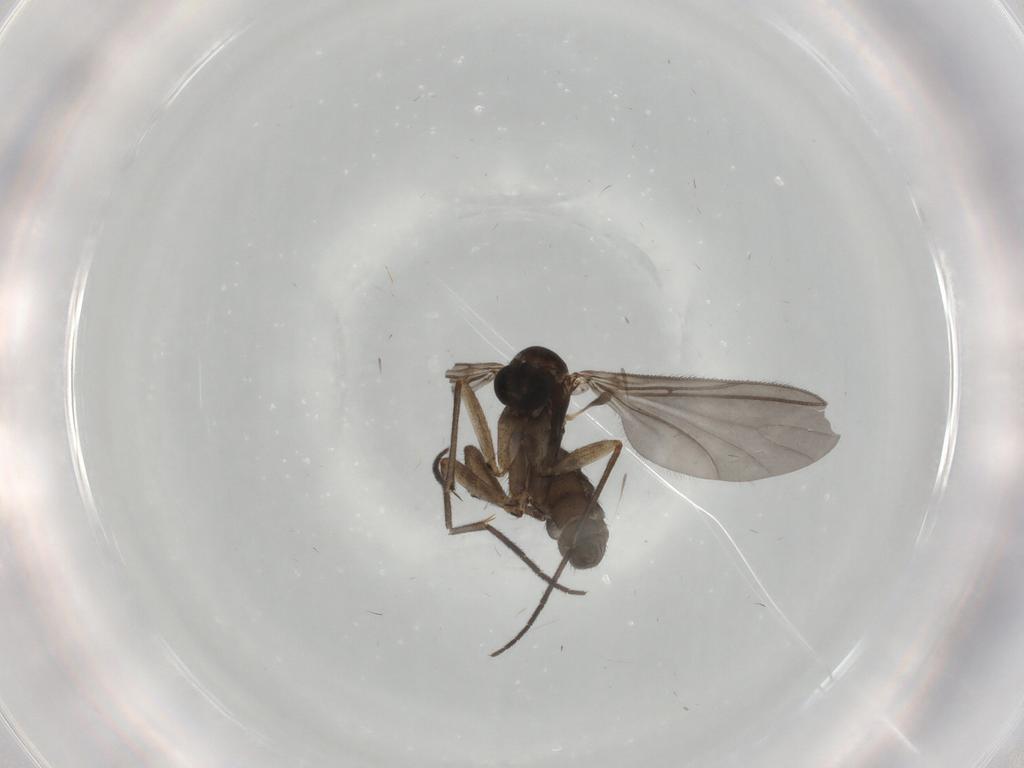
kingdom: Animalia
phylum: Arthropoda
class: Insecta
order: Diptera
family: Sciaridae
